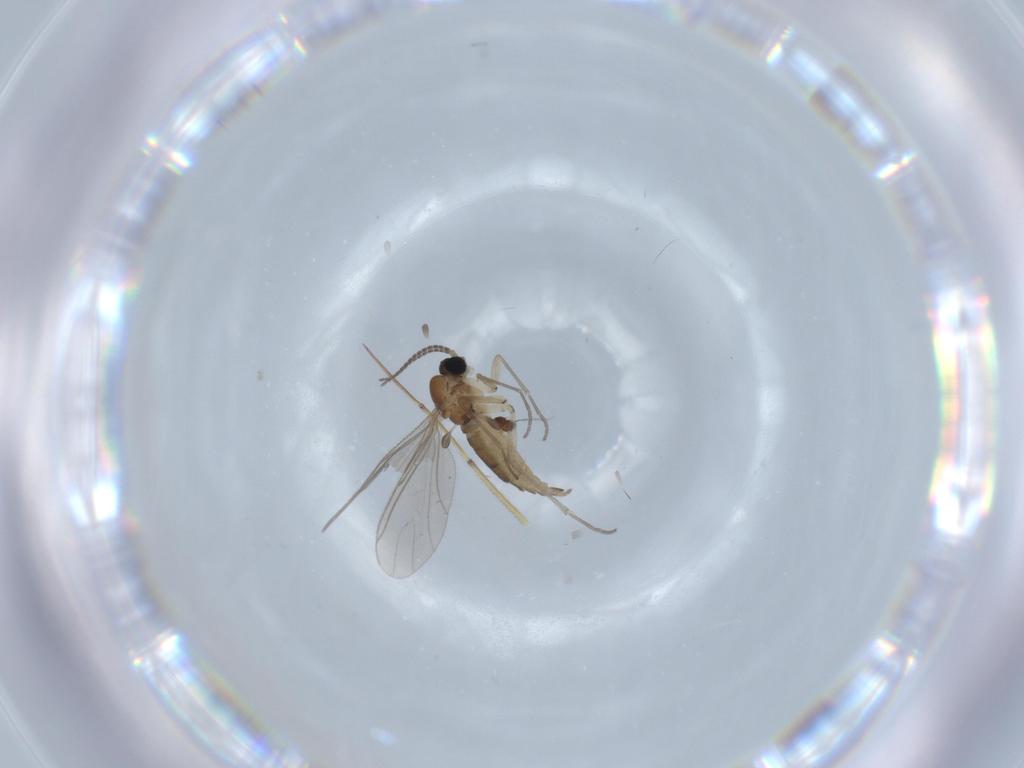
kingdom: Animalia
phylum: Arthropoda
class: Insecta
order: Diptera
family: Sciaridae
